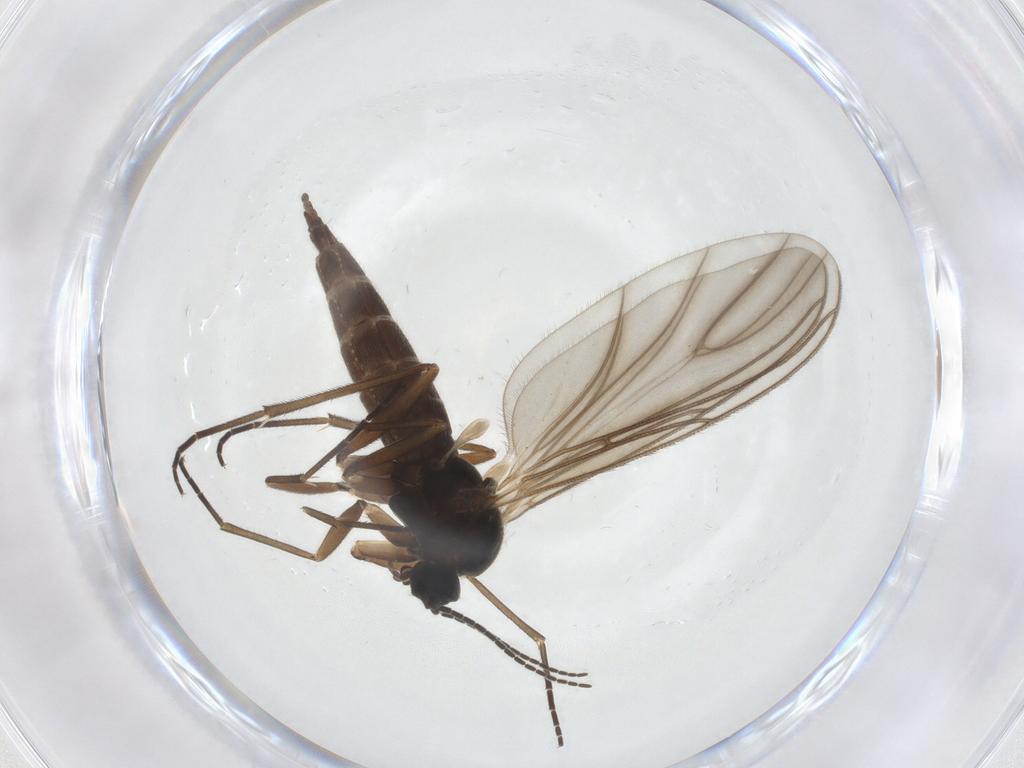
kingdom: Animalia
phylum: Arthropoda
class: Insecta
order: Diptera
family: Sciaridae
